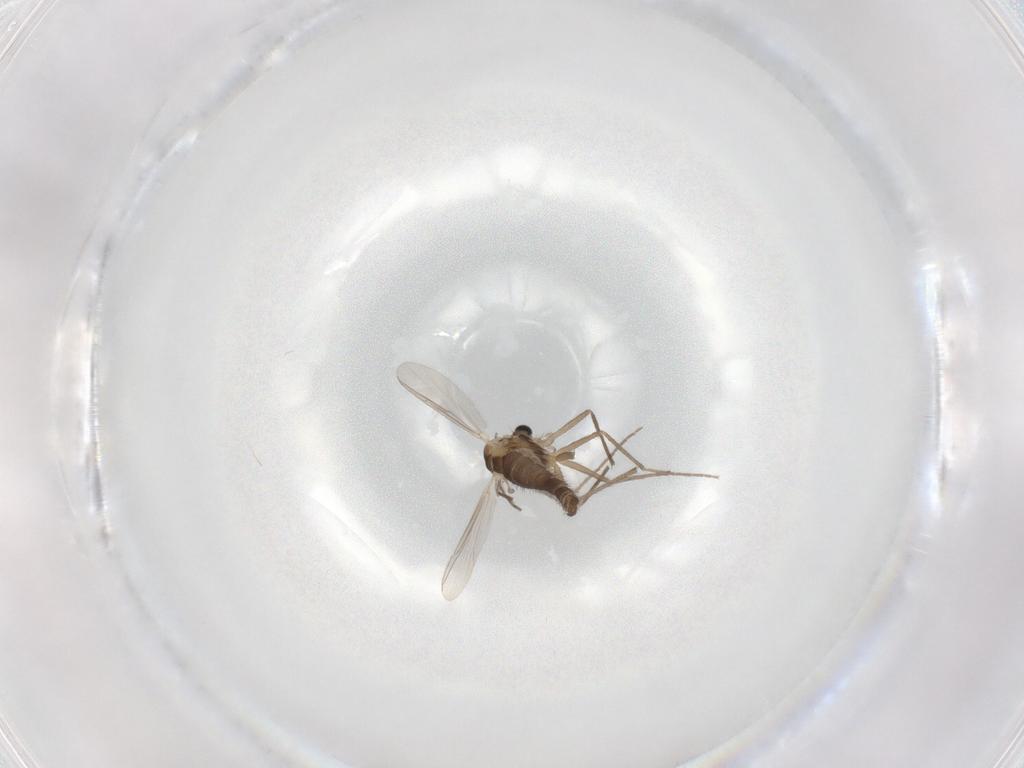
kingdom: Animalia
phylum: Arthropoda
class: Insecta
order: Diptera
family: Chironomidae
